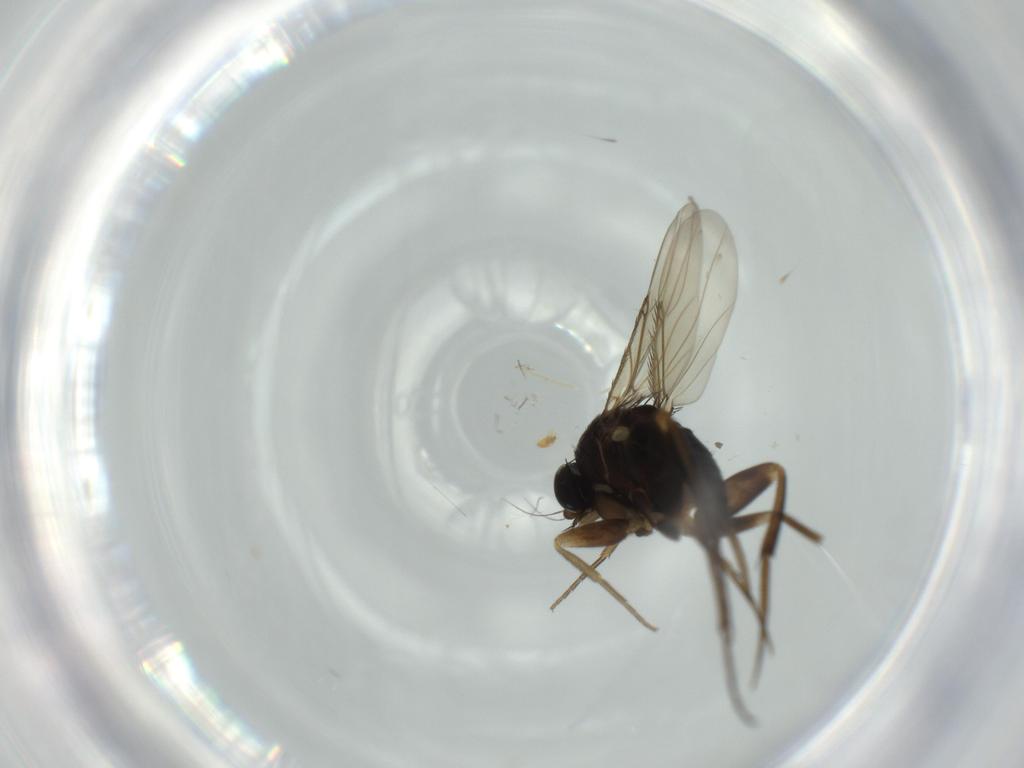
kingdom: Animalia
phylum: Arthropoda
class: Insecta
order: Diptera
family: Phoridae
